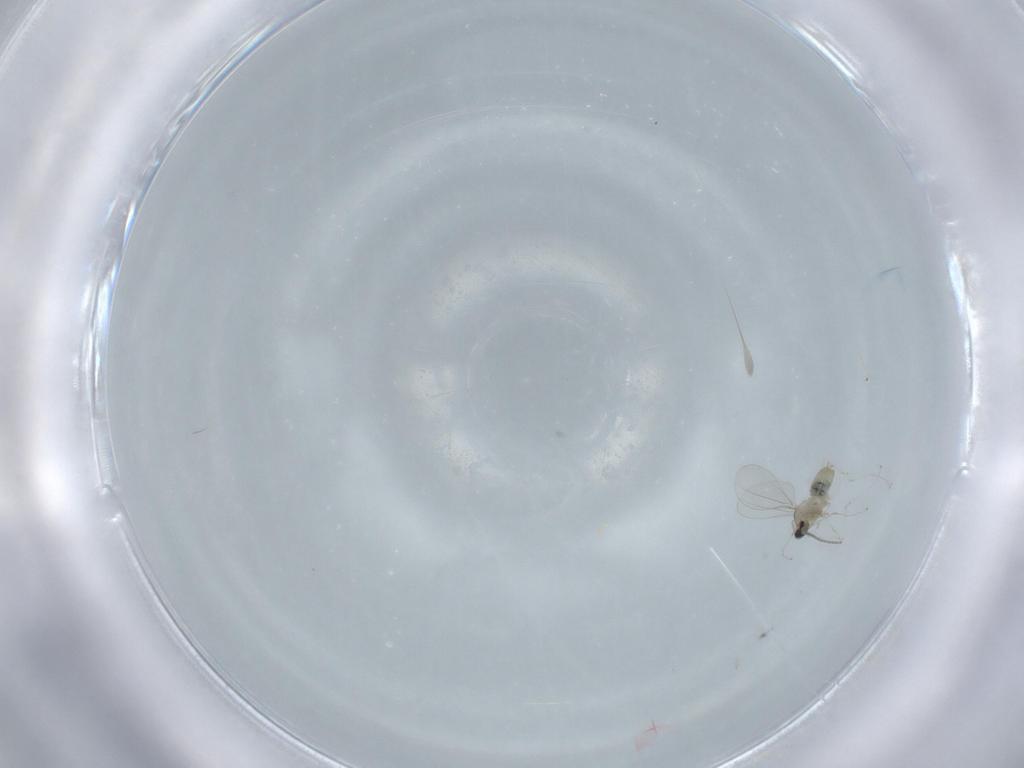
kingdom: Animalia
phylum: Arthropoda
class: Insecta
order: Diptera
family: Cecidomyiidae
